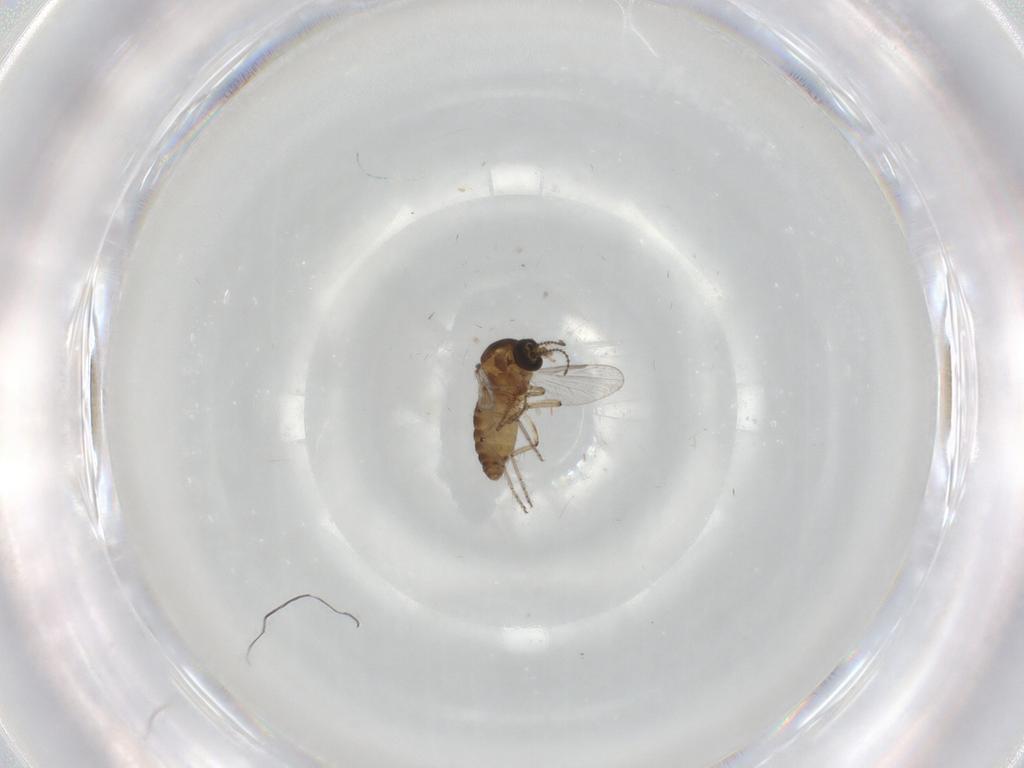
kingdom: Animalia
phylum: Arthropoda
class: Insecta
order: Diptera
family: Ceratopogonidae
